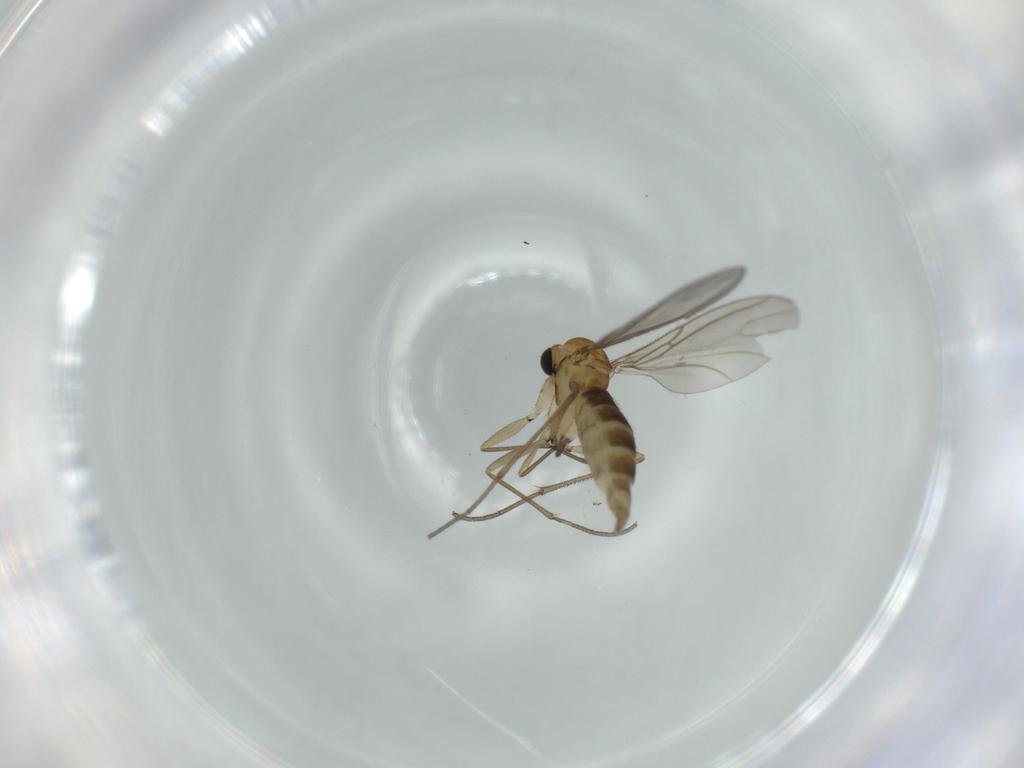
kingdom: Animalia
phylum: Arthropoda
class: Insecta
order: Diptera
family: Sciaridae
